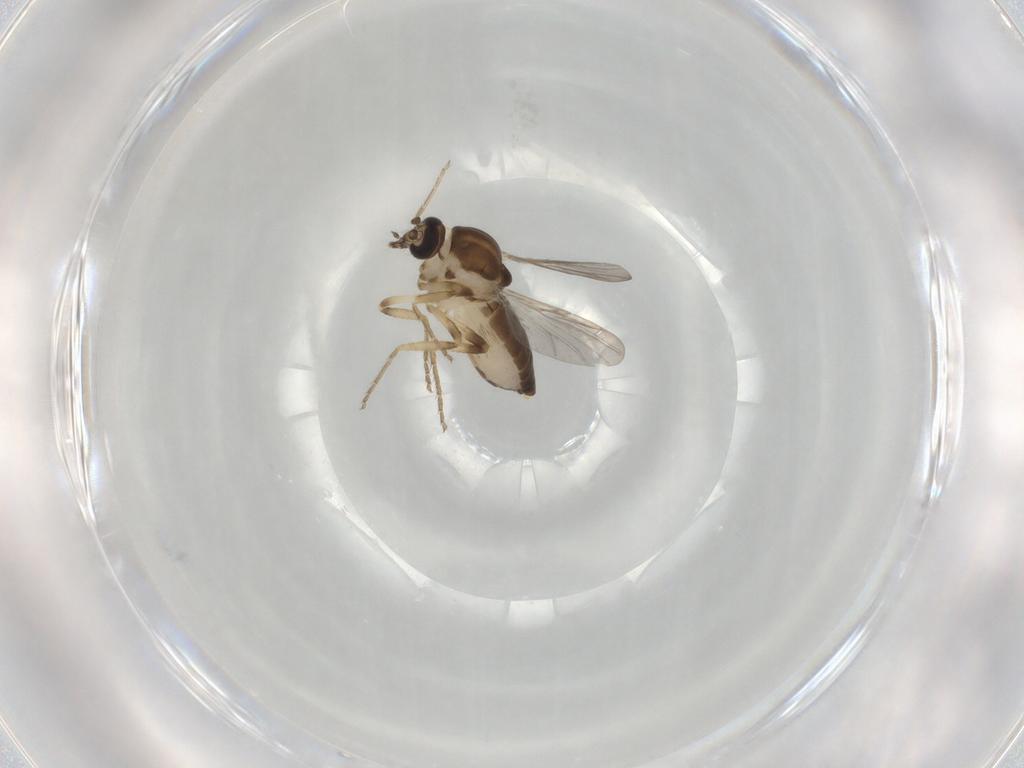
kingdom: Animalia
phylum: Arthropoda
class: Insecta
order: Diptera
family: Ceratopogonidae
